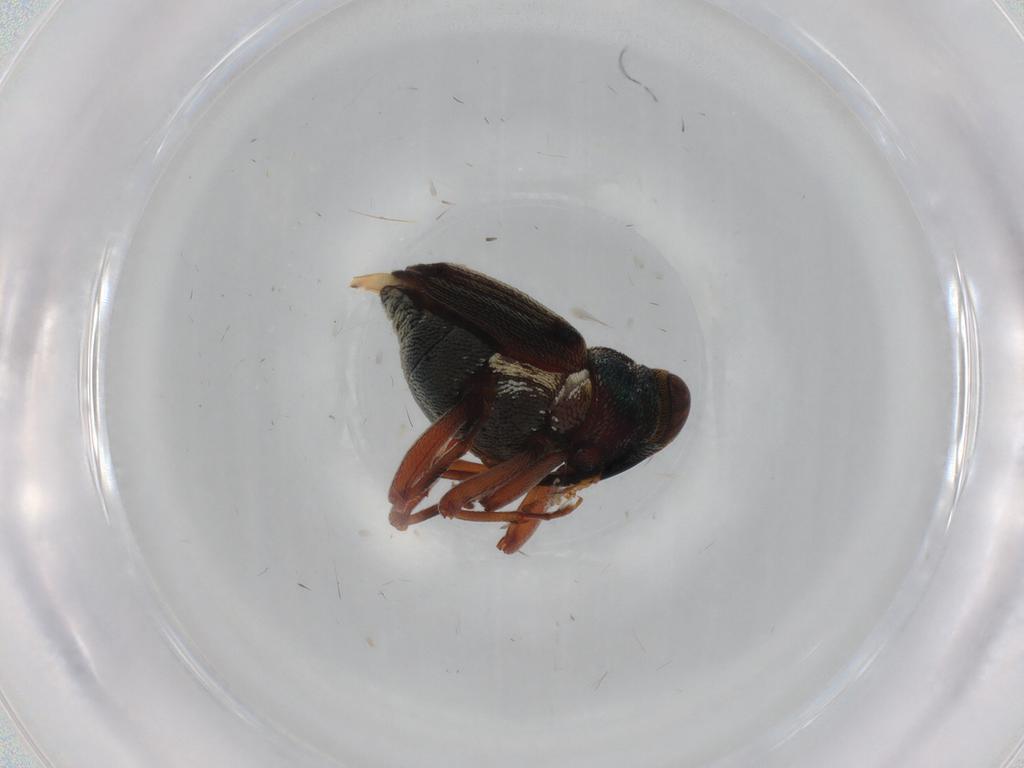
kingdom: Animalia
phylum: Arthropoda
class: Insecta
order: Coleoptera
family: Curculionidae
